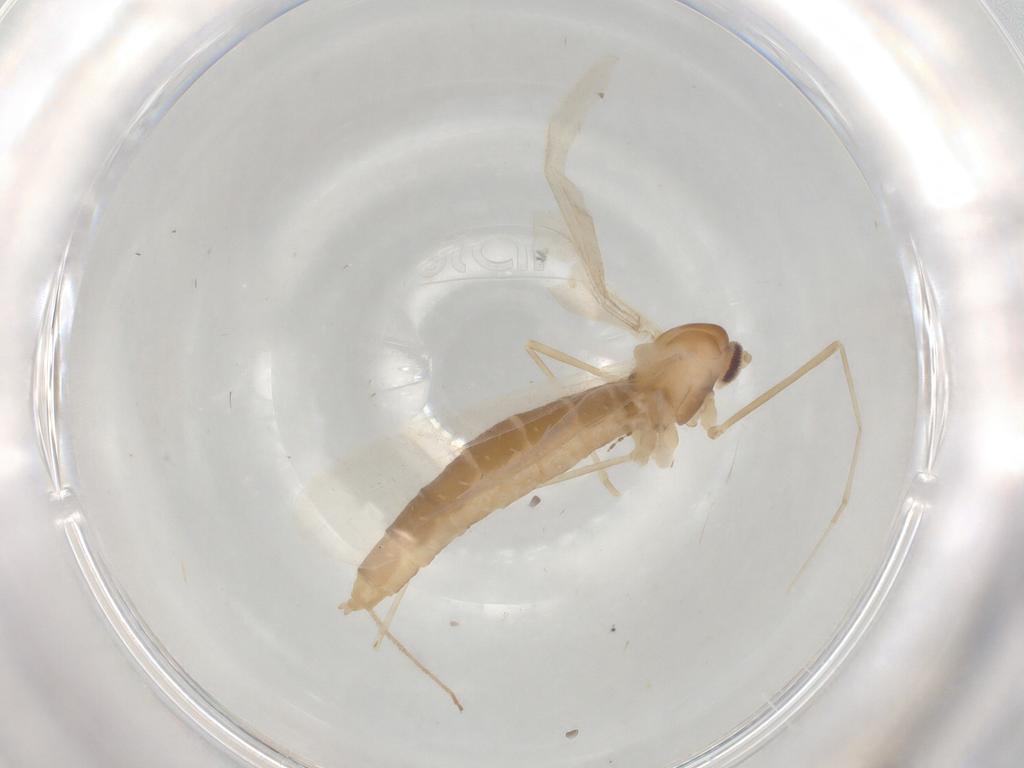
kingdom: Animalia
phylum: Arthropoda
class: Insecta
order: Diptera
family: Cecidomyiidae
